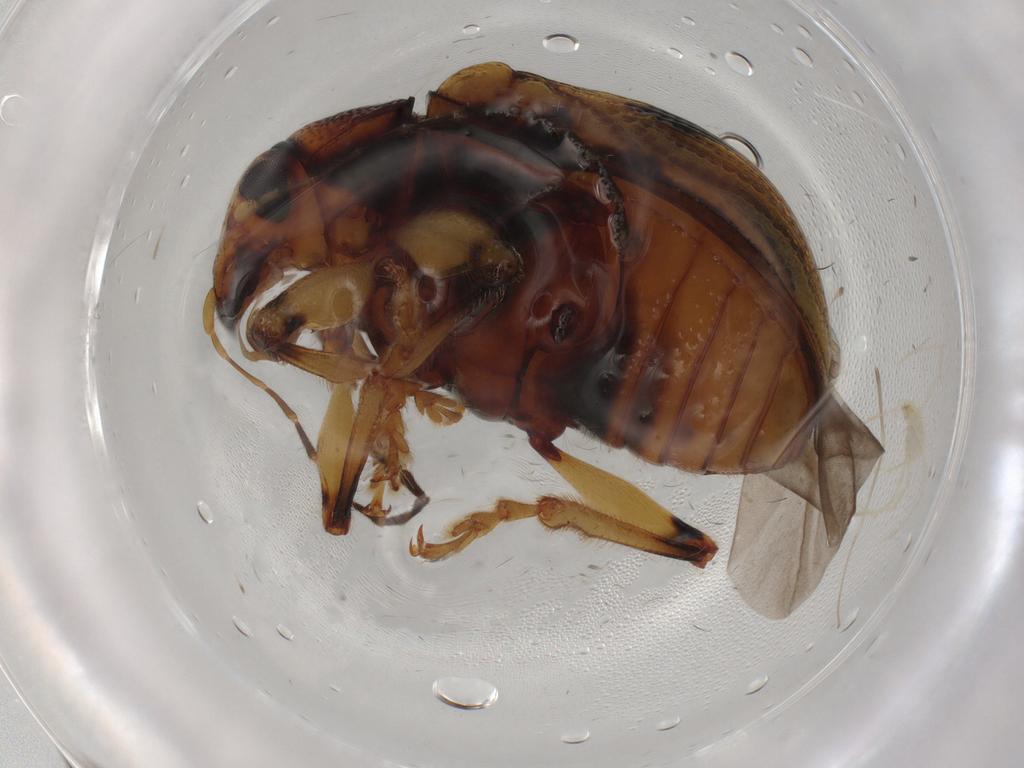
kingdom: Animalia
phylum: Arthropoda
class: Insecta
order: Coleoptera
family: Chrysomelidae
